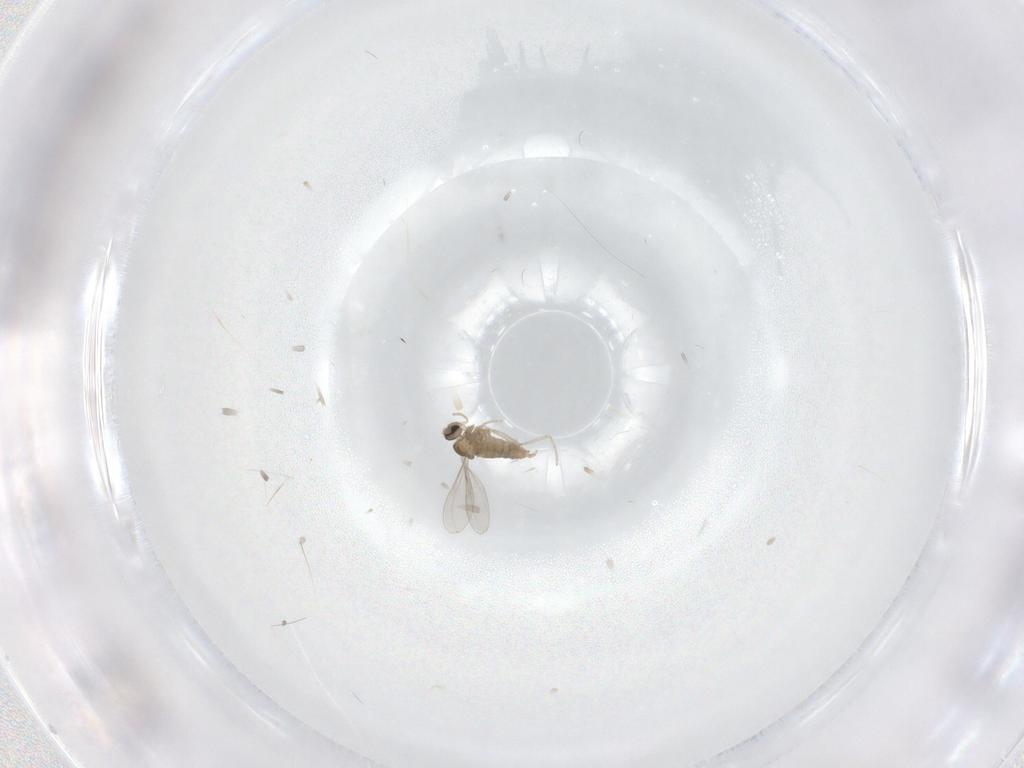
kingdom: Animalia
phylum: Arthropoda
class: Insecta
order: Diptera
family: Cecidomyiidae
